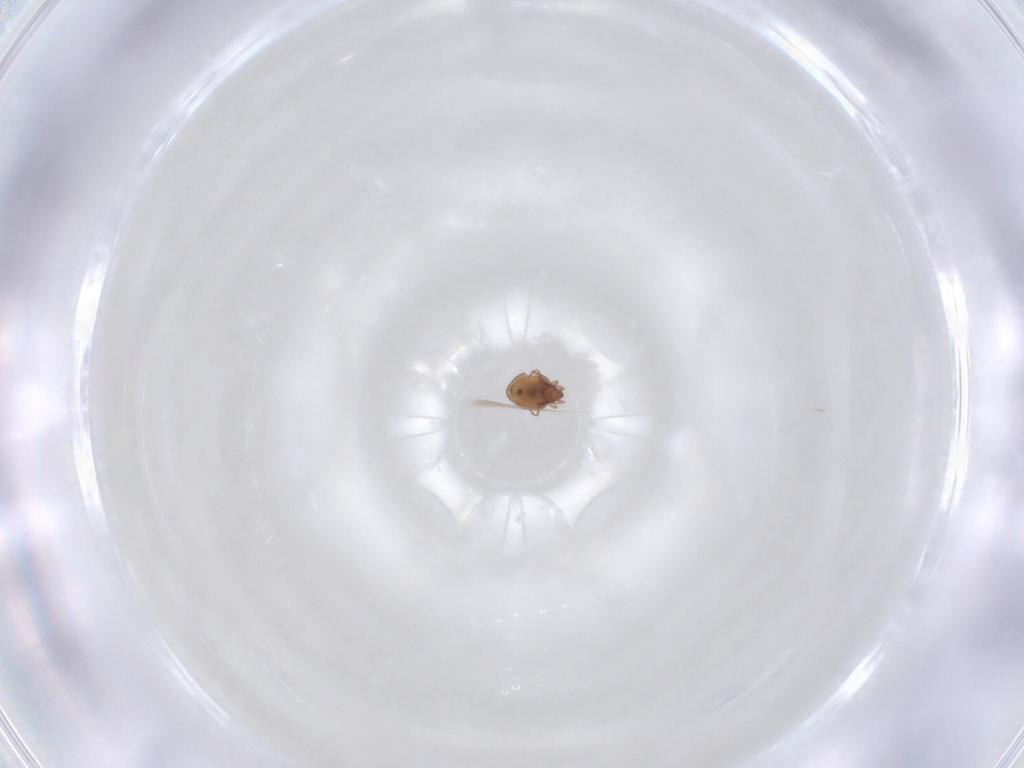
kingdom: Animalia
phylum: Arthropoda
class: Arachnida
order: Sarcoptiformes
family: Oribatulidae
